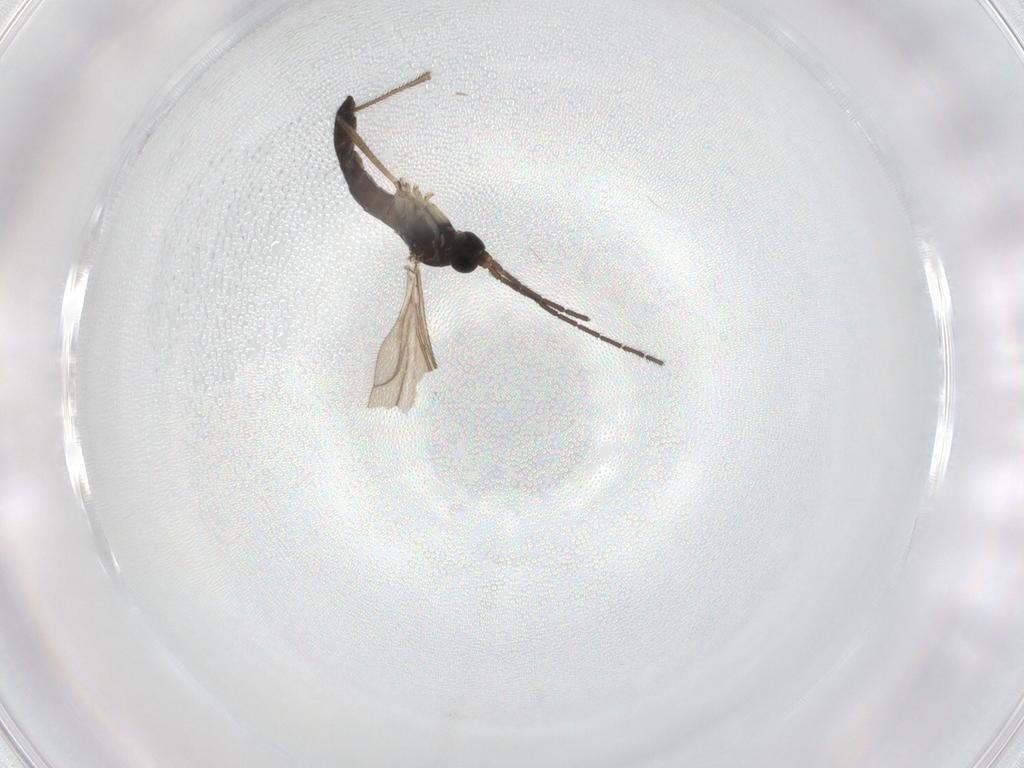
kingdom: Animalia
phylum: Arthropoda
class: Insecta
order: Diptera
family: Sciaridae
